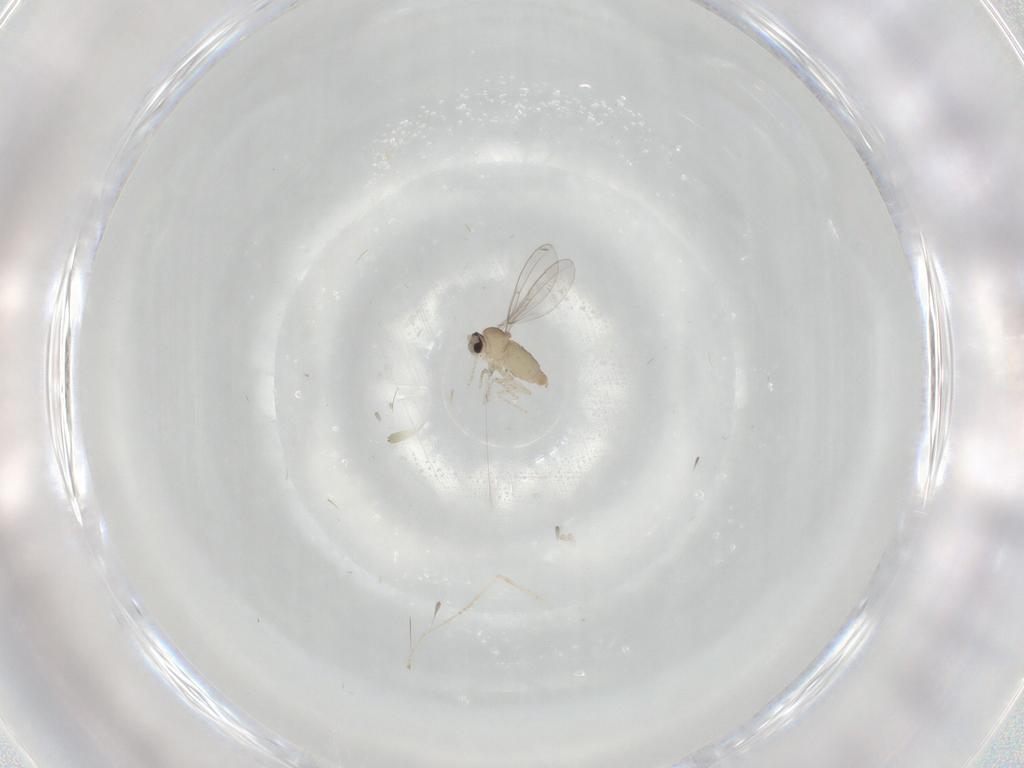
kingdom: Animalia
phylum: Arthropoda
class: Insecta
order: Diptera
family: Cecidomyiidae
